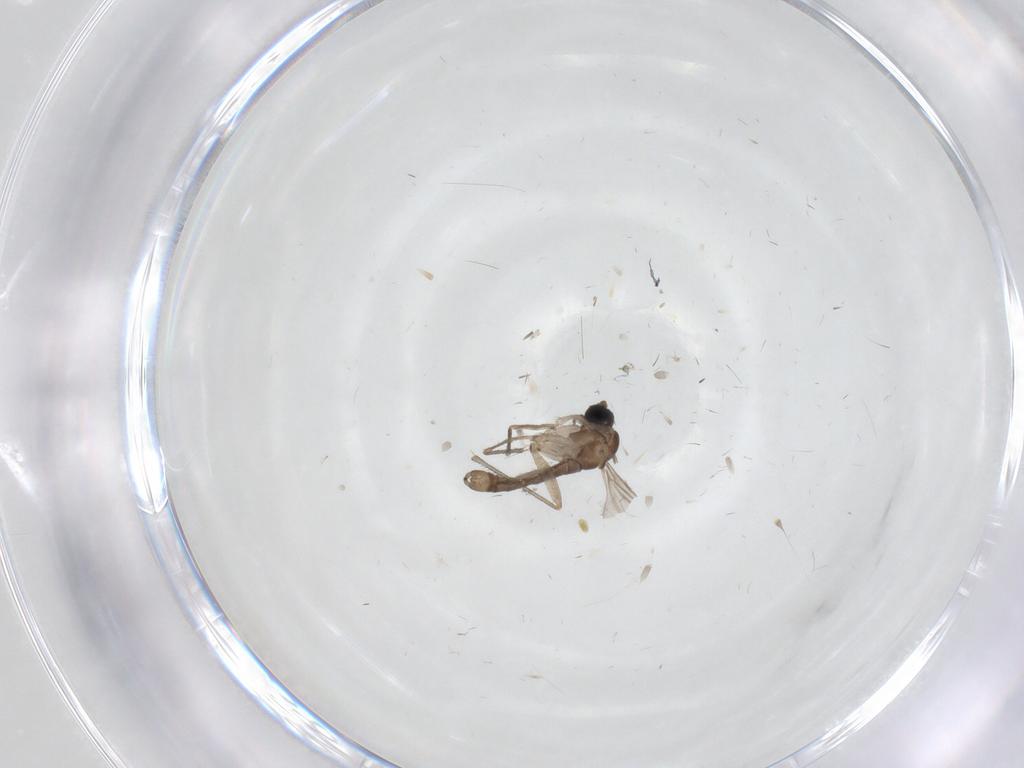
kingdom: Animalia
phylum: Arthropoda
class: Insecta
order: Diptera
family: Sciaridae
